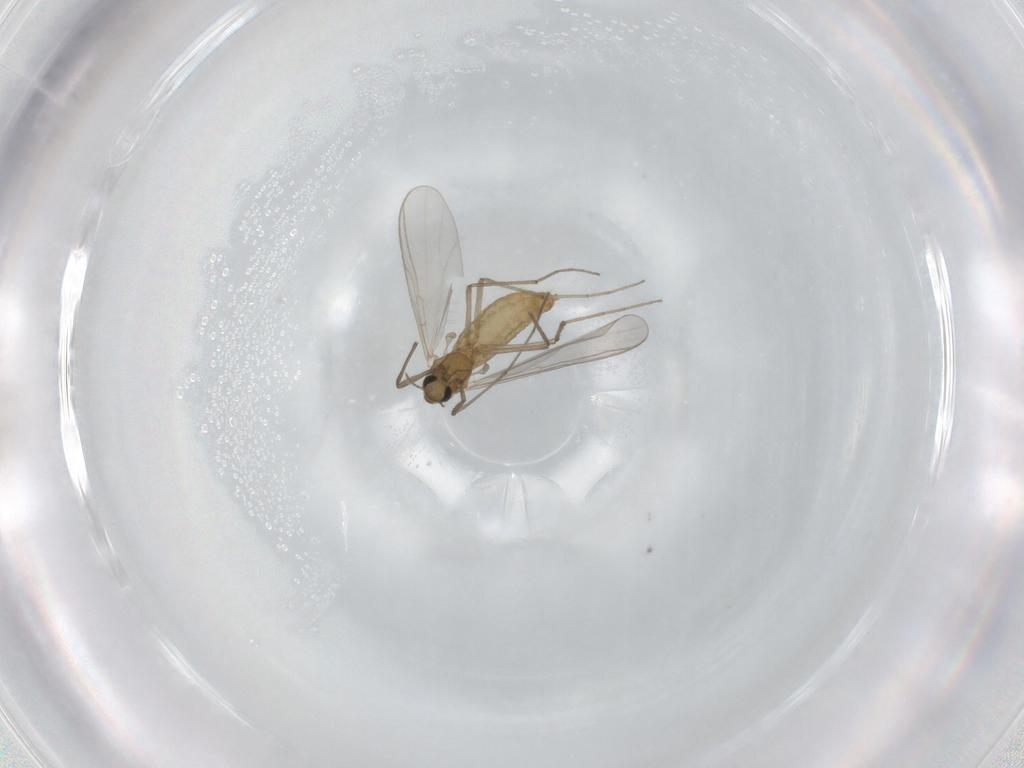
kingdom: Animalia
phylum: Arthropoda
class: Insecta
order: Diptera
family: Chironomidae
